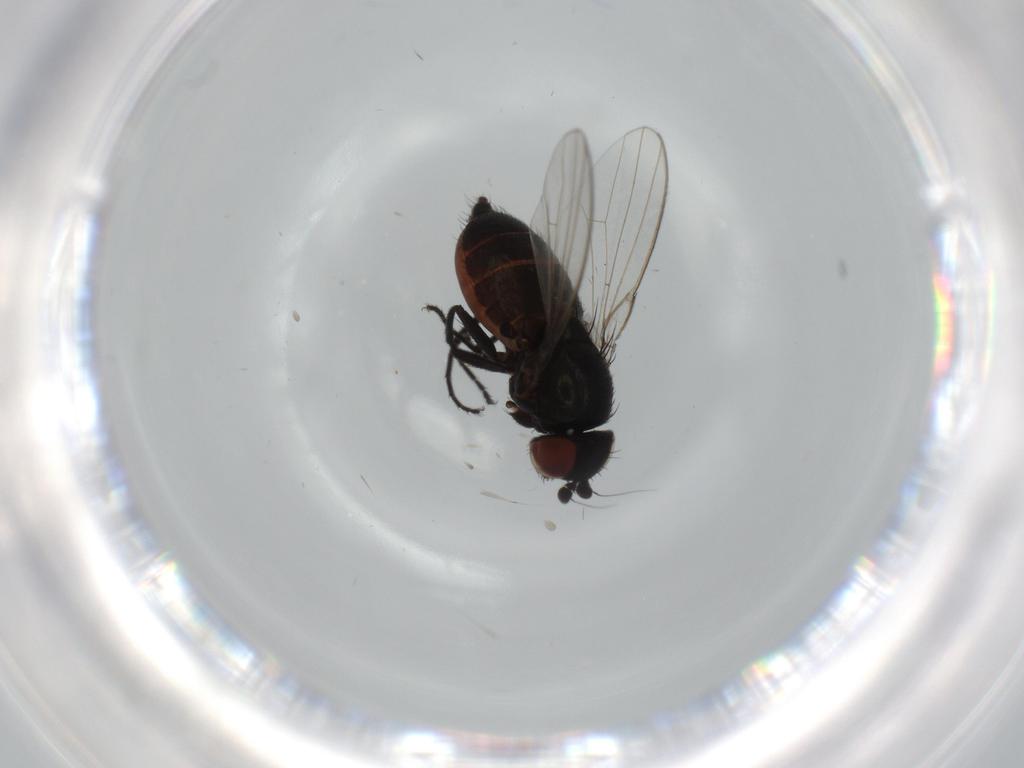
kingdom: Animalia
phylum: Arthropoda
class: Insecta
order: Diptera
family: Milichiidae
